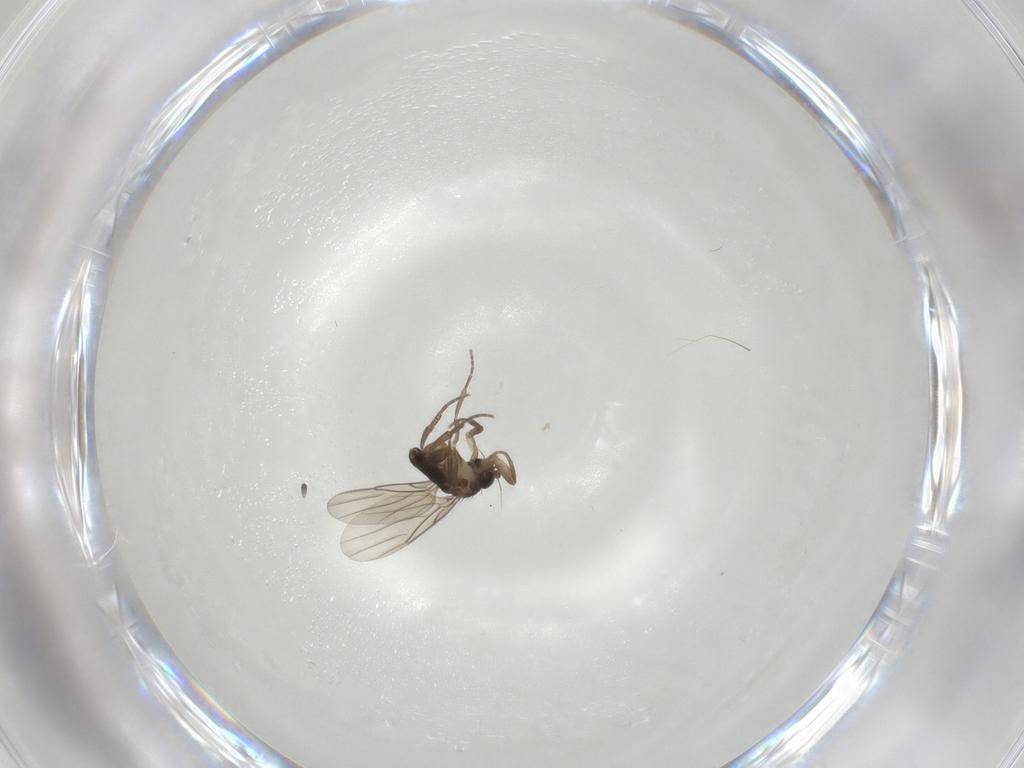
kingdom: Animalia
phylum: Arthropoda
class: Insecta
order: Diptera
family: Phoridae
